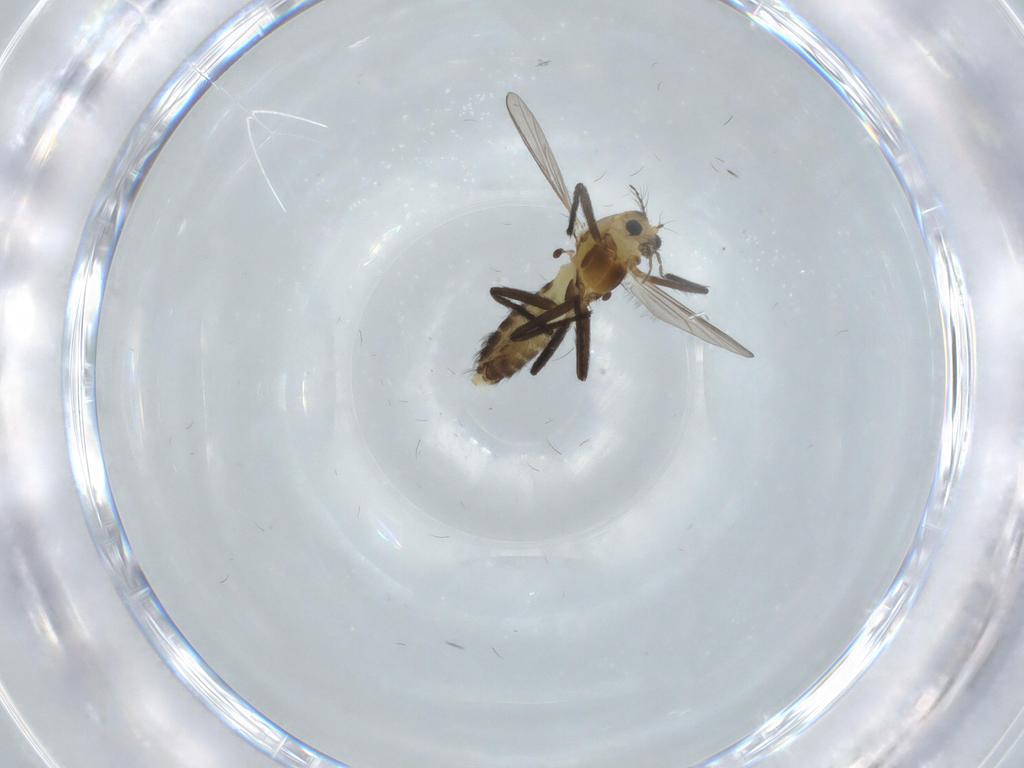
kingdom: Animalia
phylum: Arthropoda
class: Insecta
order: Diptera
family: Chironomidae
